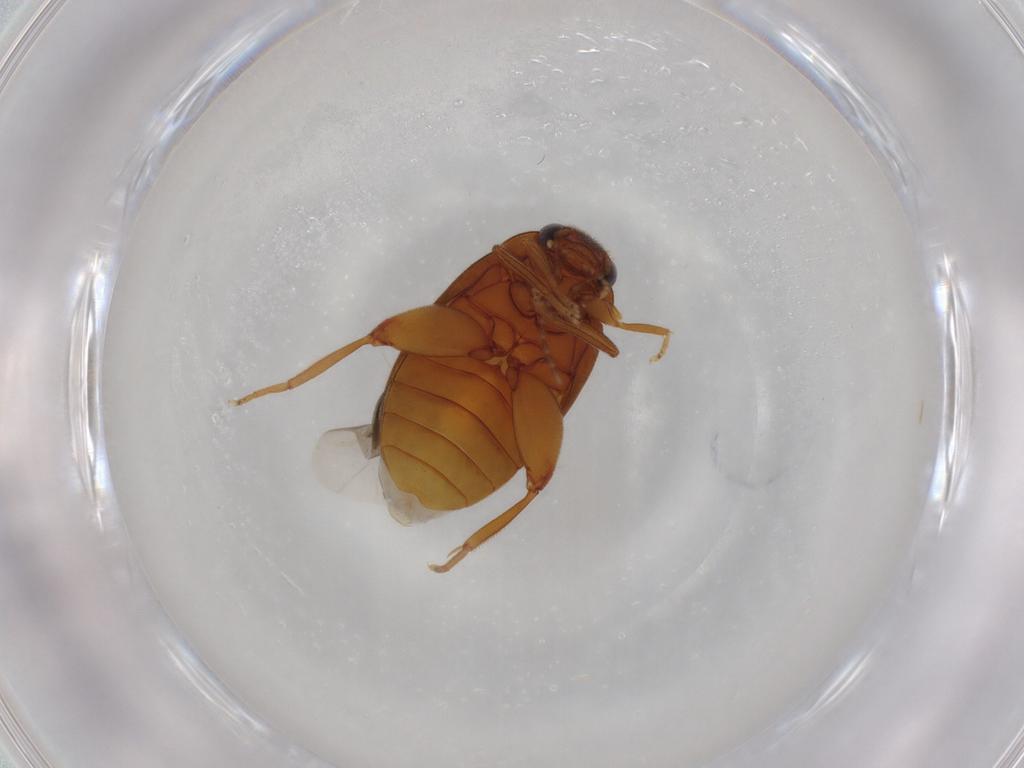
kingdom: Animalia
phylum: Arthropoda
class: Insecta
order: Coleoptera
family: Scirtidae
